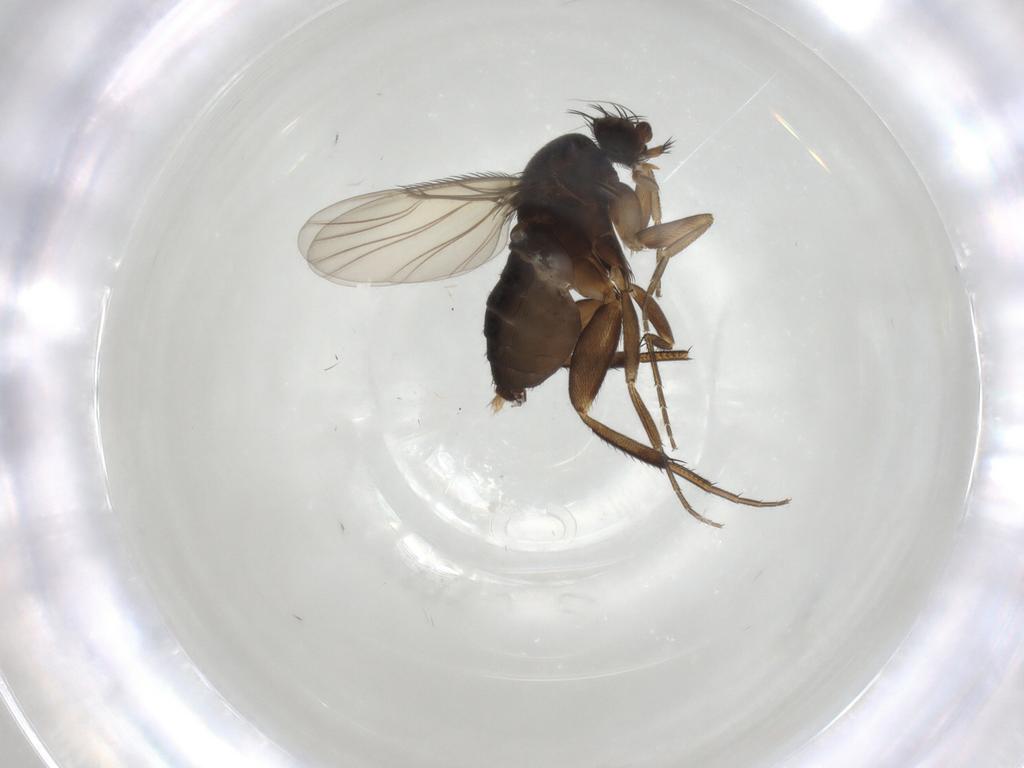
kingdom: Animalia
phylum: Arthropoda
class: Insecta
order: Diptera
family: Phoridae
